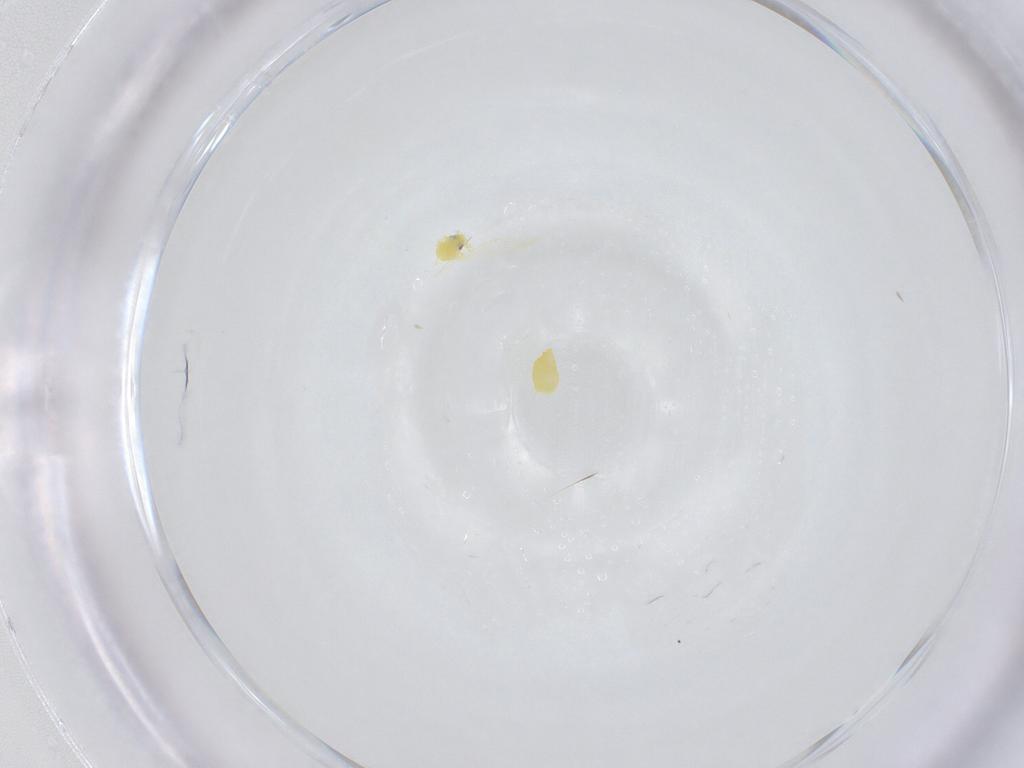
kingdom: Animalia
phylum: Arthropoda
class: Insecta
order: Hemiptera
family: Aleyrodidae
